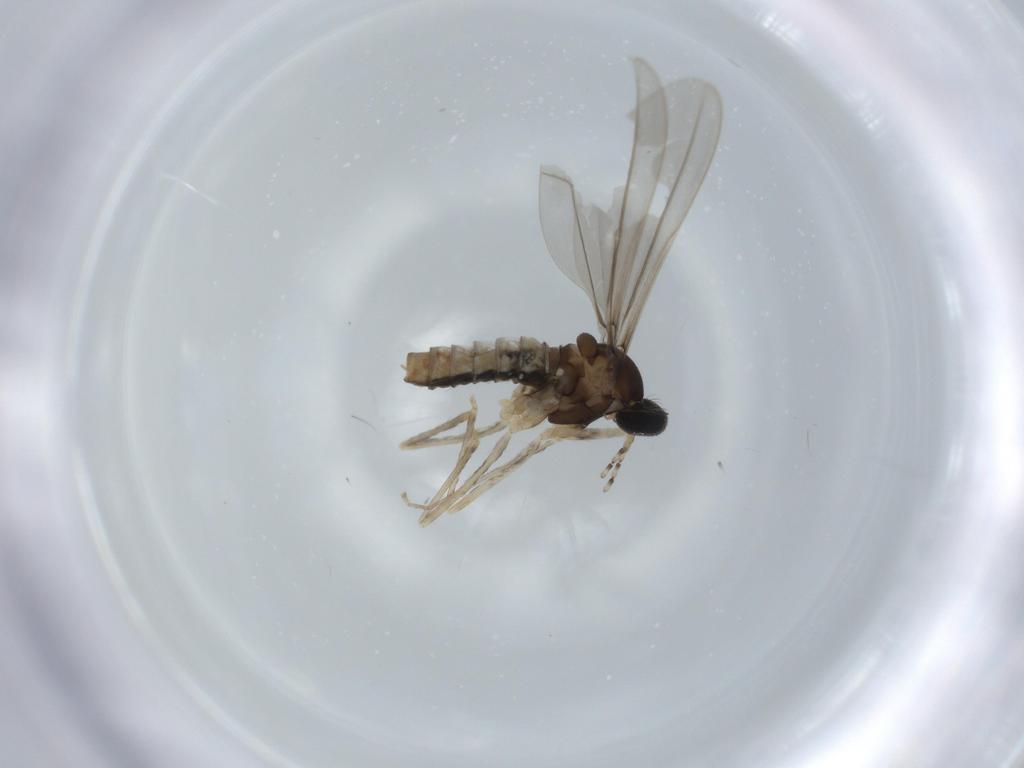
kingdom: Animalia
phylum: Arthropoda
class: Insecta
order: Diptera
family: Cecidomyiidae
